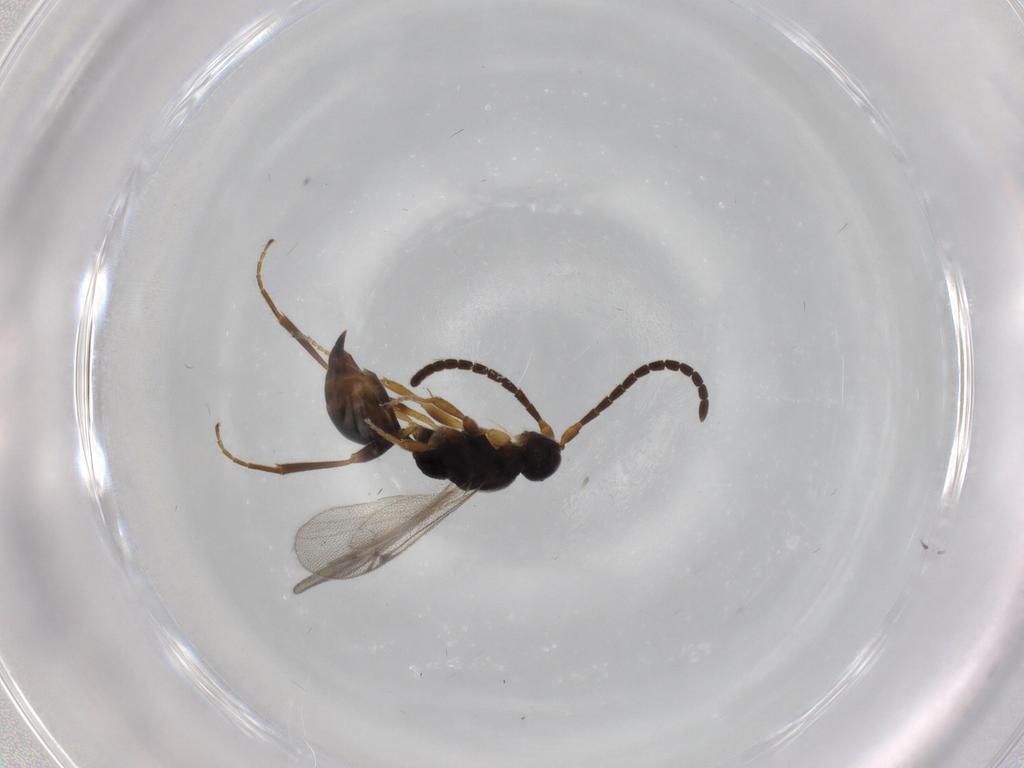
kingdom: Animalia
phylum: Arthropoda
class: Insecta
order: Hymenoptera
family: Proctotrupidae
